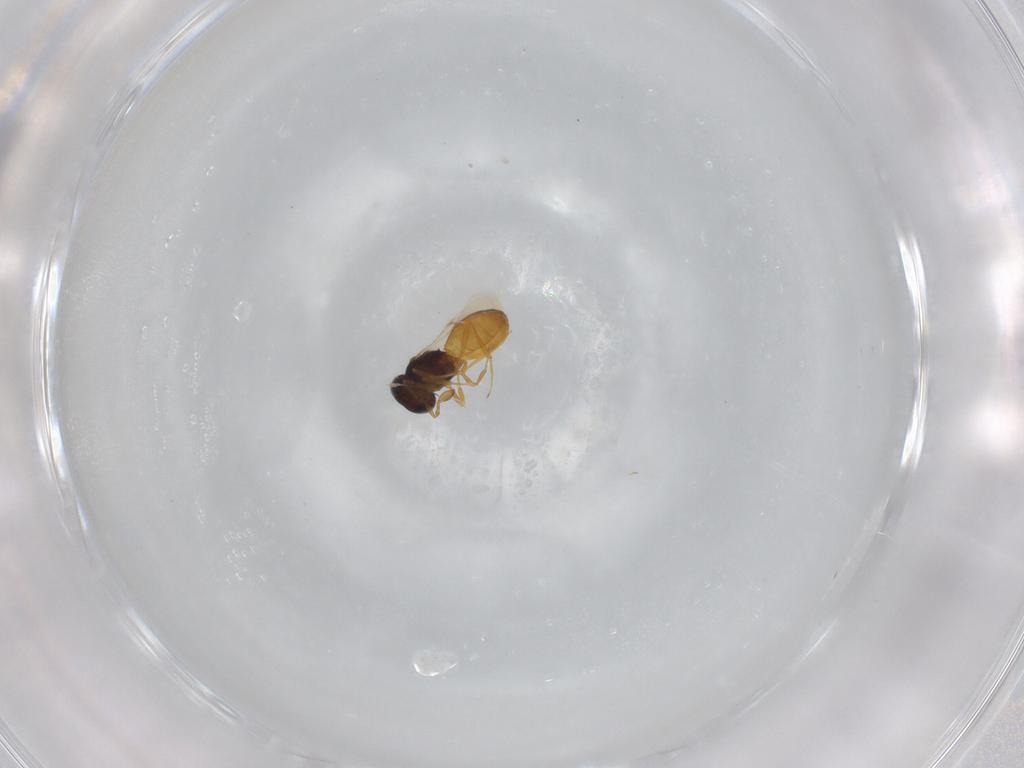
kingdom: Animalia
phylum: Arthropoda
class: Insecta
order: Hymenoptera
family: Scelionidae
